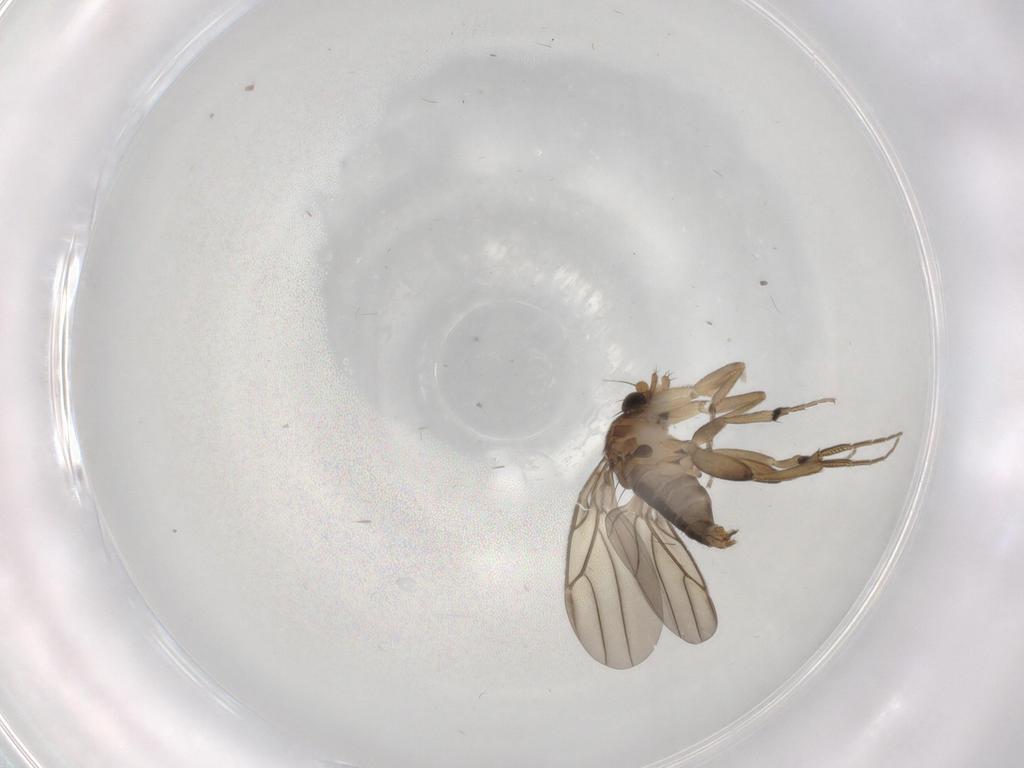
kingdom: Animalia
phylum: Arthropoda
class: Insecta
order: Diptera
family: Phoridae
